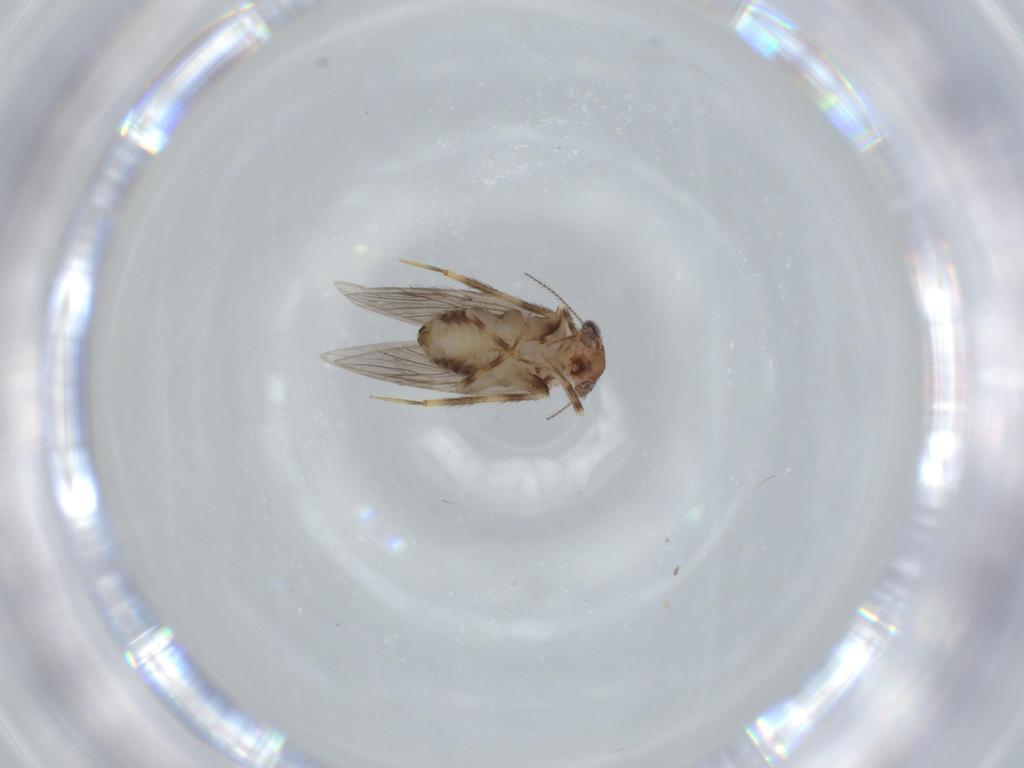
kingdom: Animalia
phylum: Arthropoda
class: Insecta
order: Psocodea
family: Lepidopsocidae
